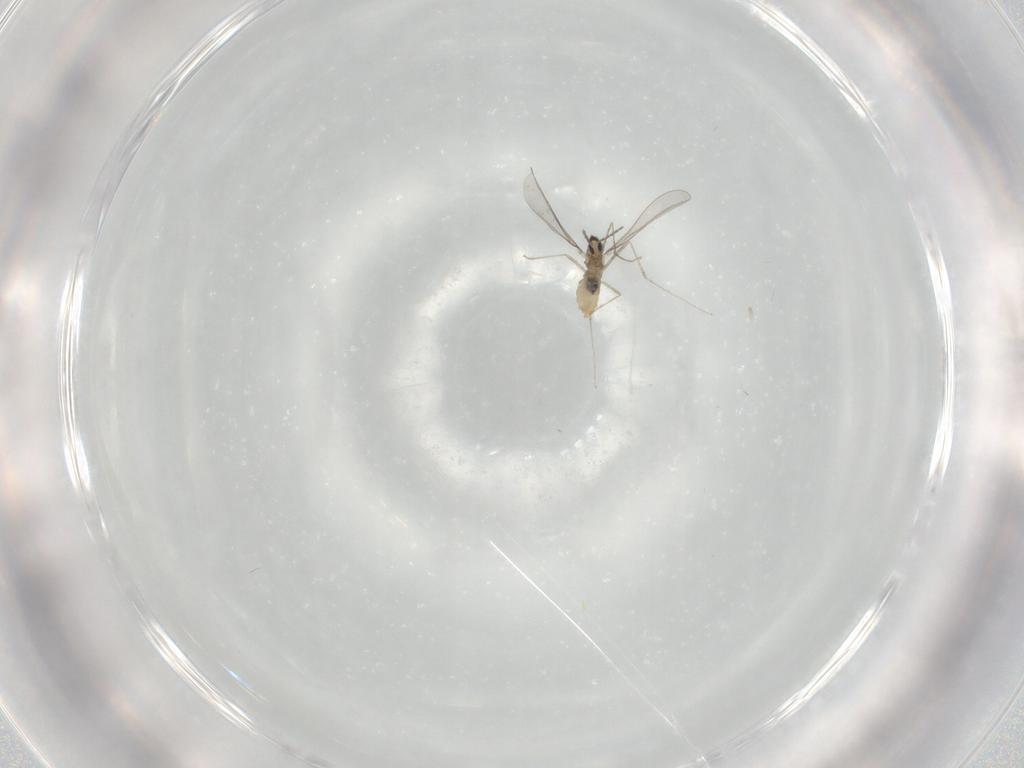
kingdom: Animalia
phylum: Arthropoda
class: Insecta
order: Diptera
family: Chironomidae
